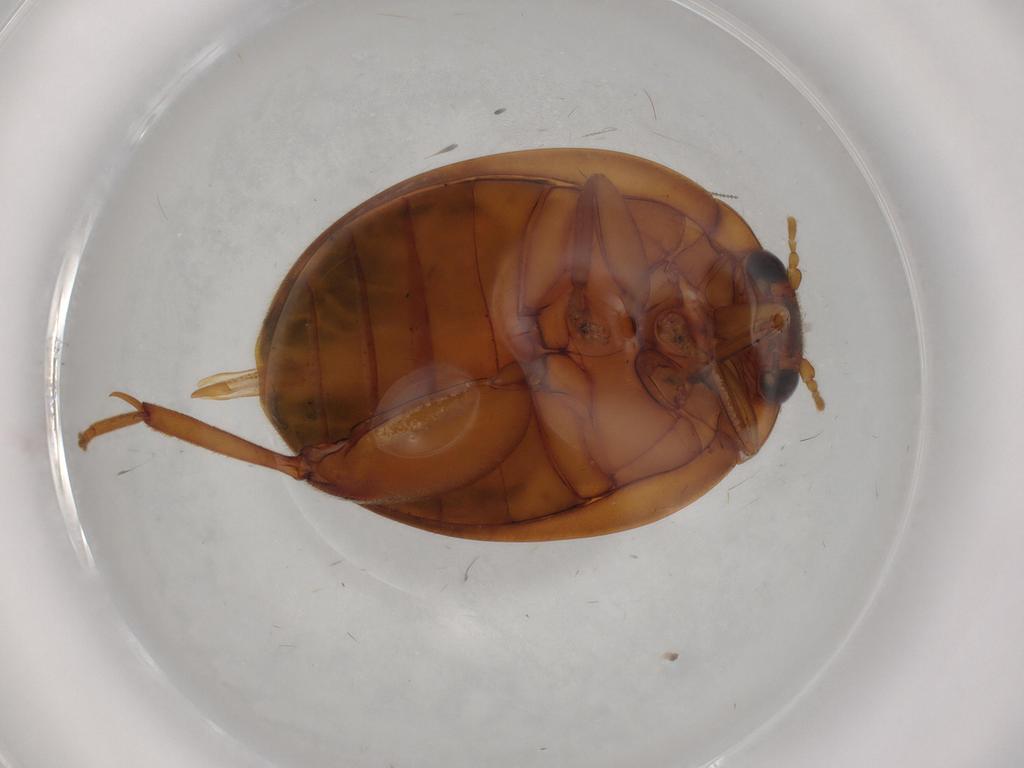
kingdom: Animalia
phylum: Arthropoda
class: Insecta
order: Coleoptera
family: Scirtidae
